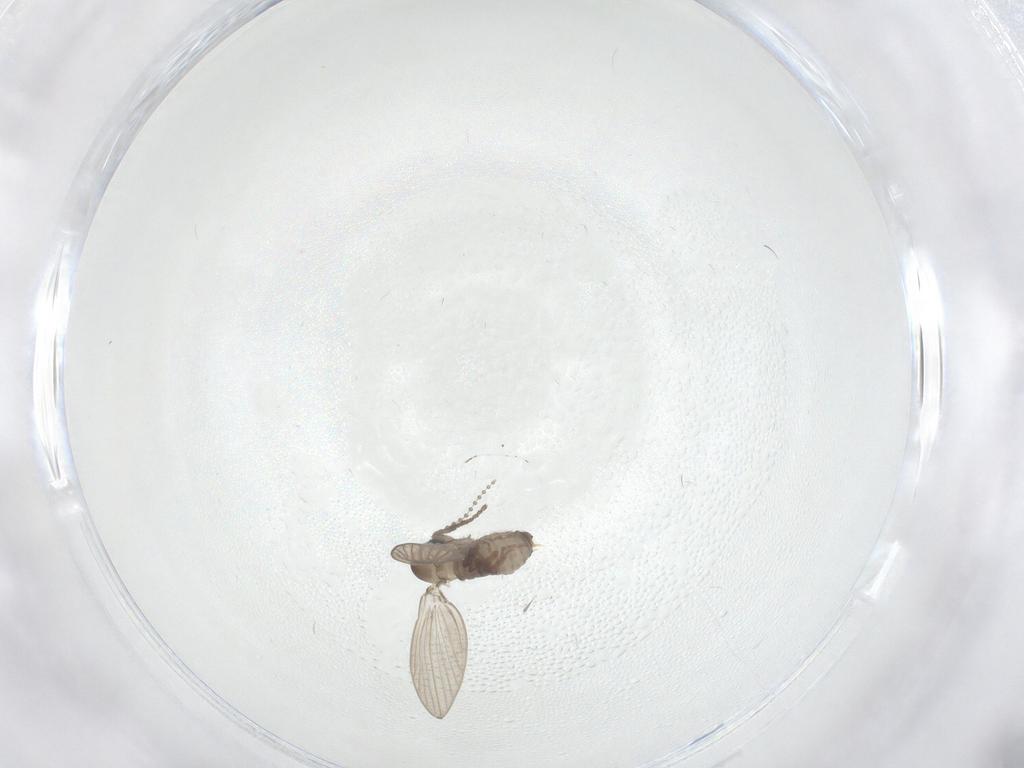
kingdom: Animalia
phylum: Arthropoda
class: Insecta
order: Diptera
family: Psychodidae
